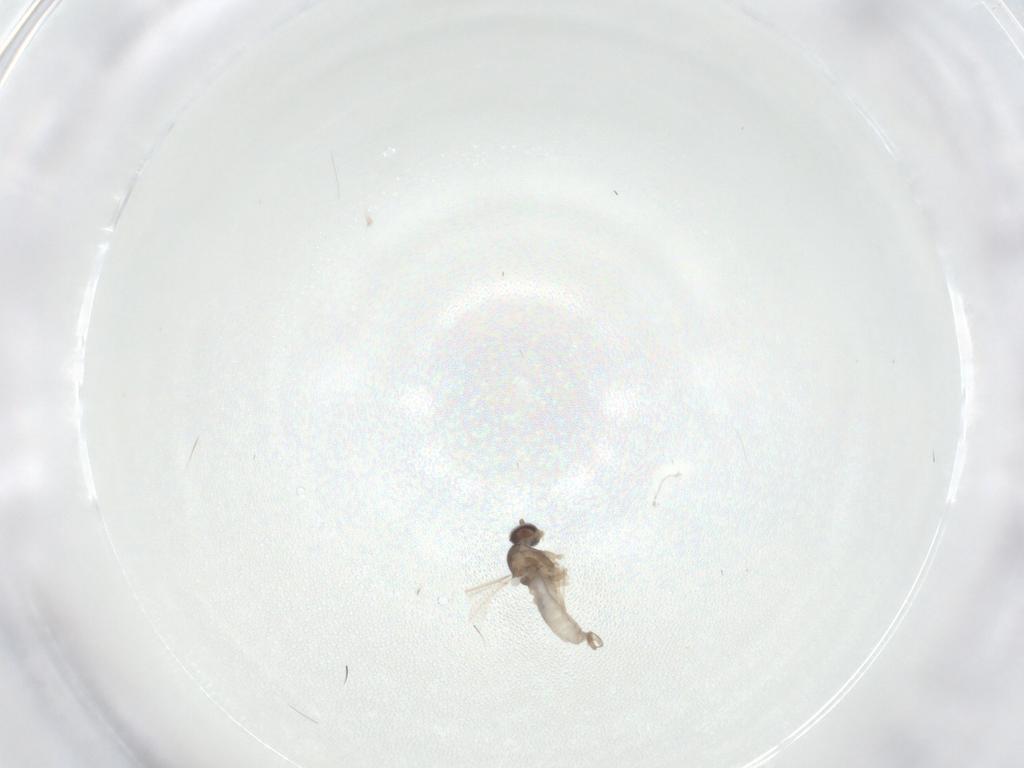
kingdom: Animalia
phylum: Arthropoda
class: Insecta
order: Diptera
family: Cecidomyiidae
